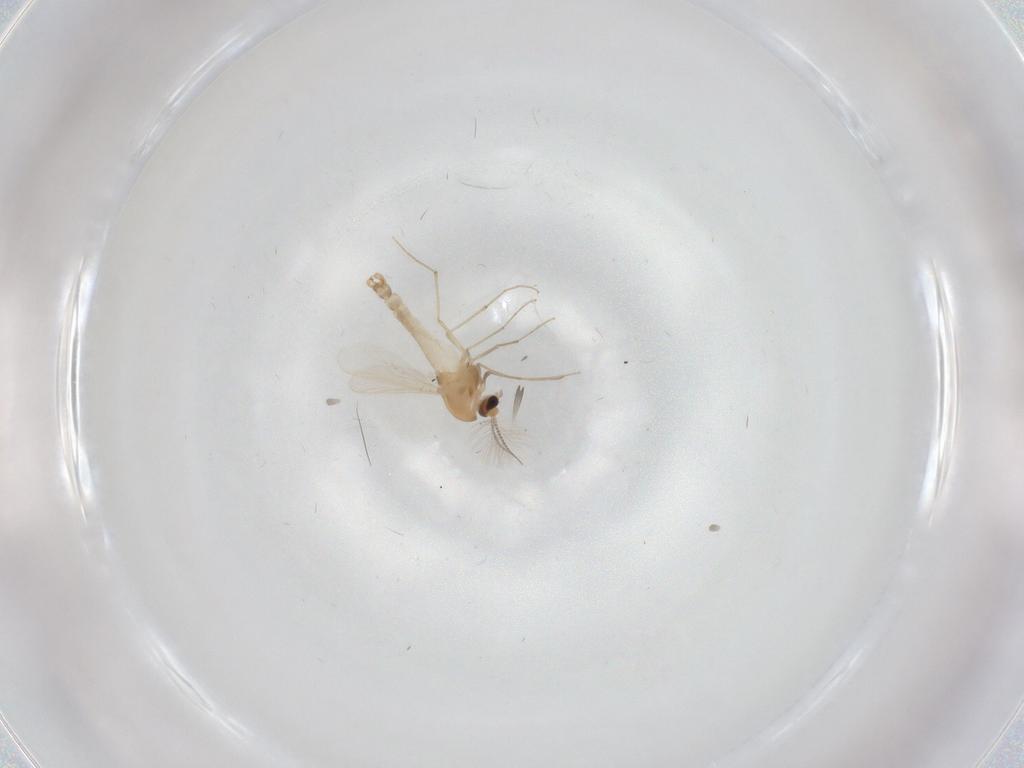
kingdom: Animalia
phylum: Arthropoda
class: Insecta
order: Diptera
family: Chironomidae
